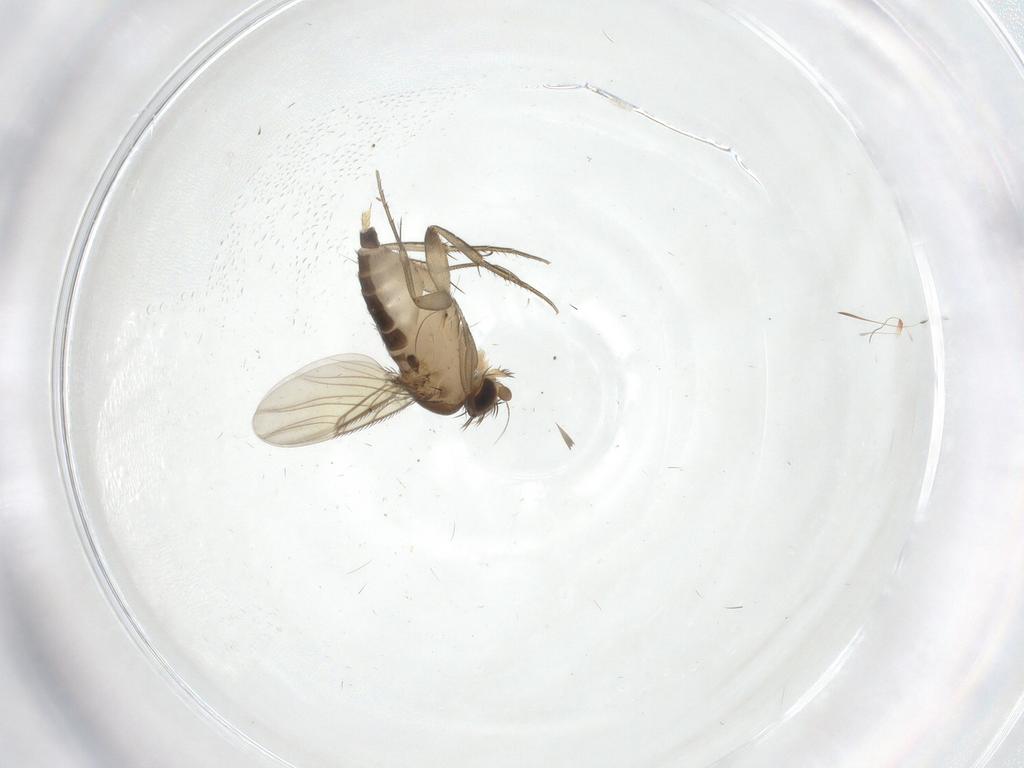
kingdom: Animalia
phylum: Arthropoda
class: Insecta
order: Diptera
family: Phoridae
